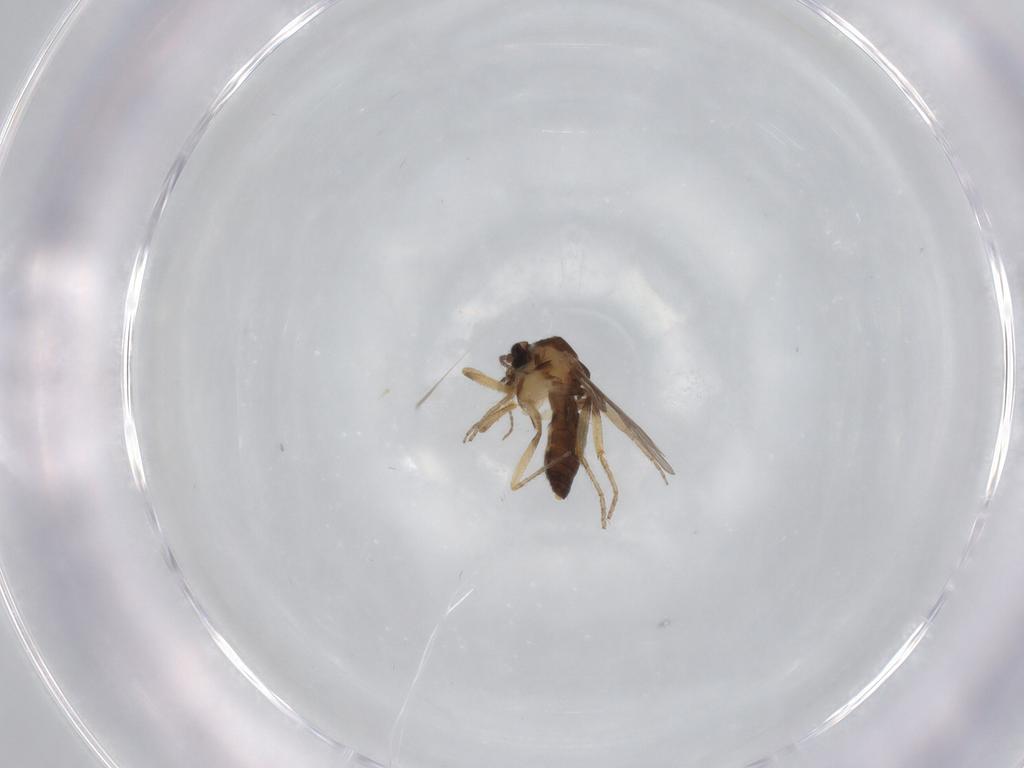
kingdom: Animalia
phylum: Arthropoda
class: Insecta
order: Diptera
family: Ceratopogonidae
